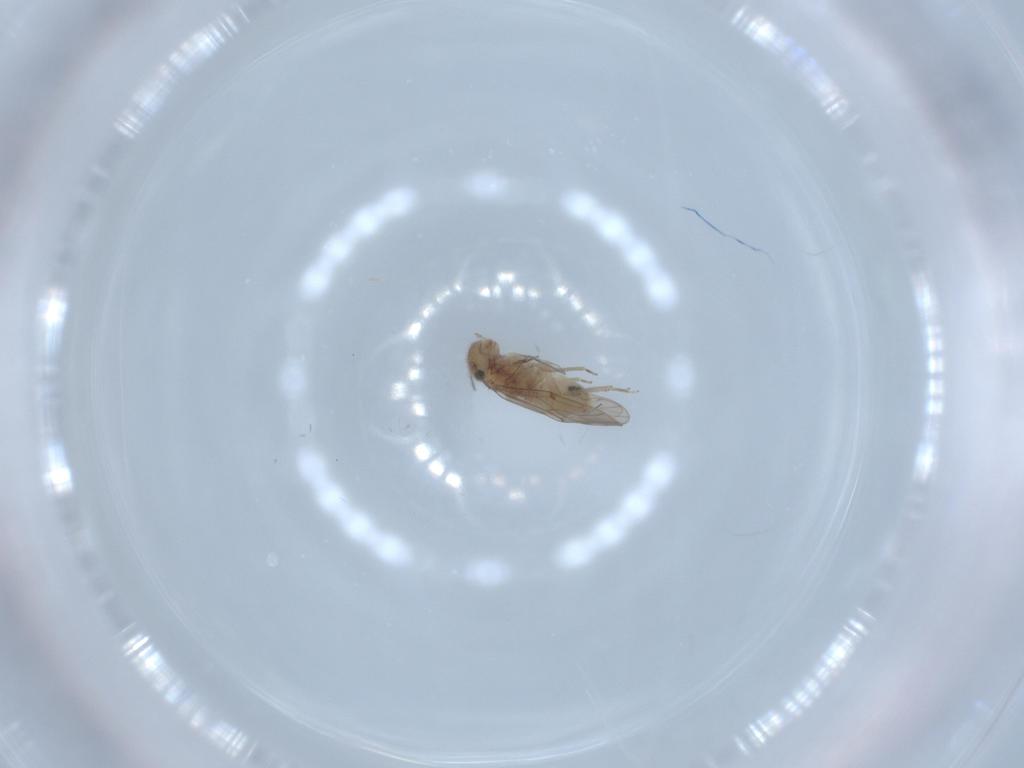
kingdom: Animalia
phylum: Arthropoda
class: Insecta
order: Psocodea
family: Ectopsocidae
